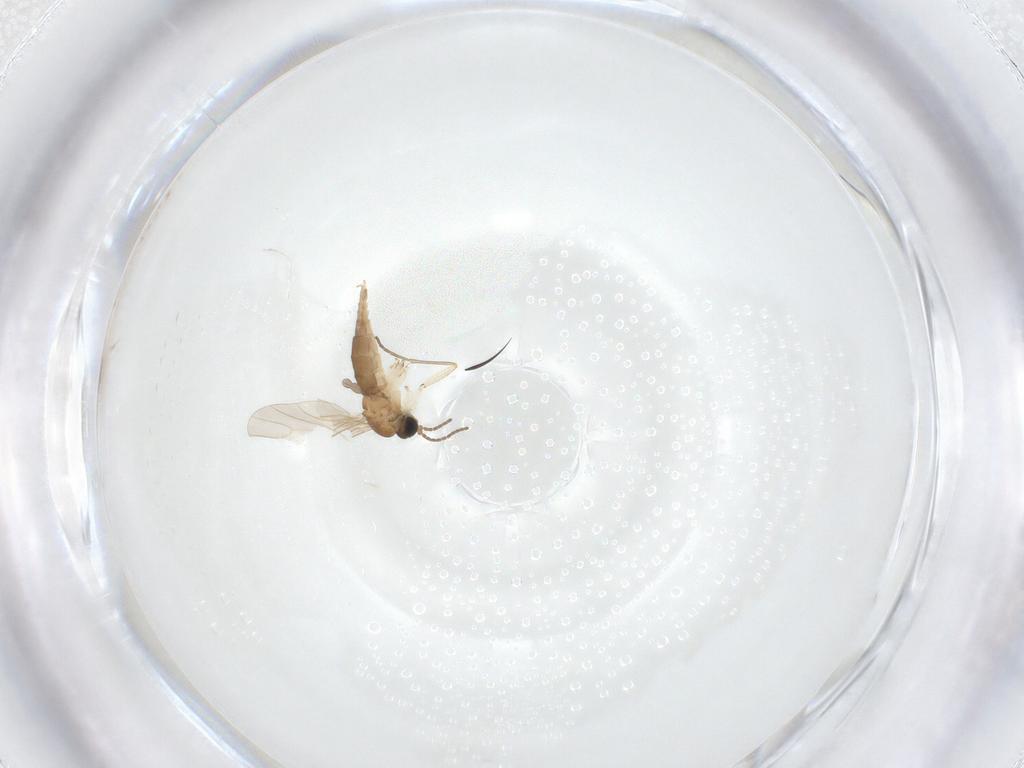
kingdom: Animalia
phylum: Arthropoda
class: Insecta
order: Diptera
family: Sciaridae
